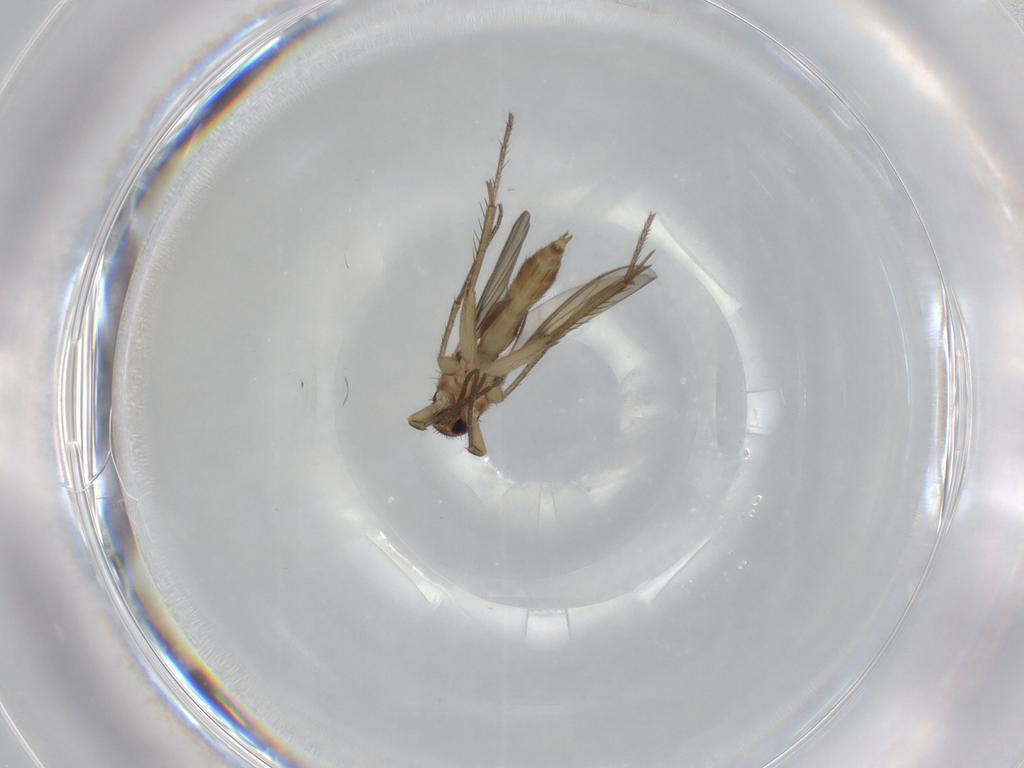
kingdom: Animalia
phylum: Arthropoda
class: Insecta
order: Diptera
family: Mycetophilidae
